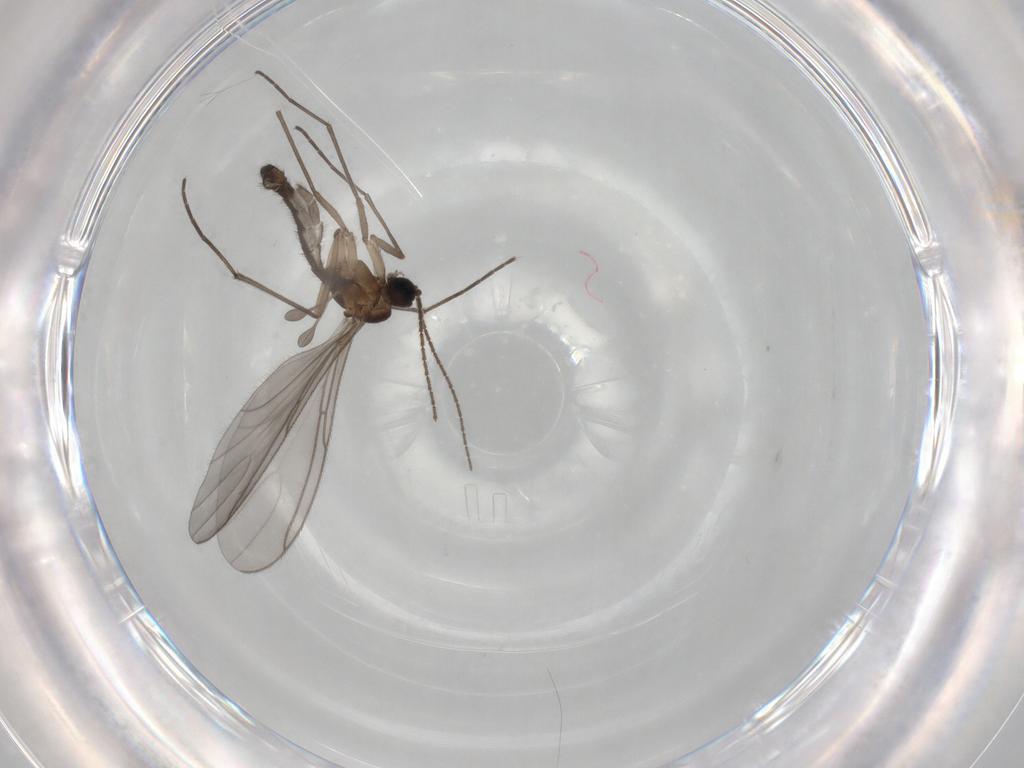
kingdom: Animalia
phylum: Arthropoda
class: Insecta
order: Diptera
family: Sciaridae
